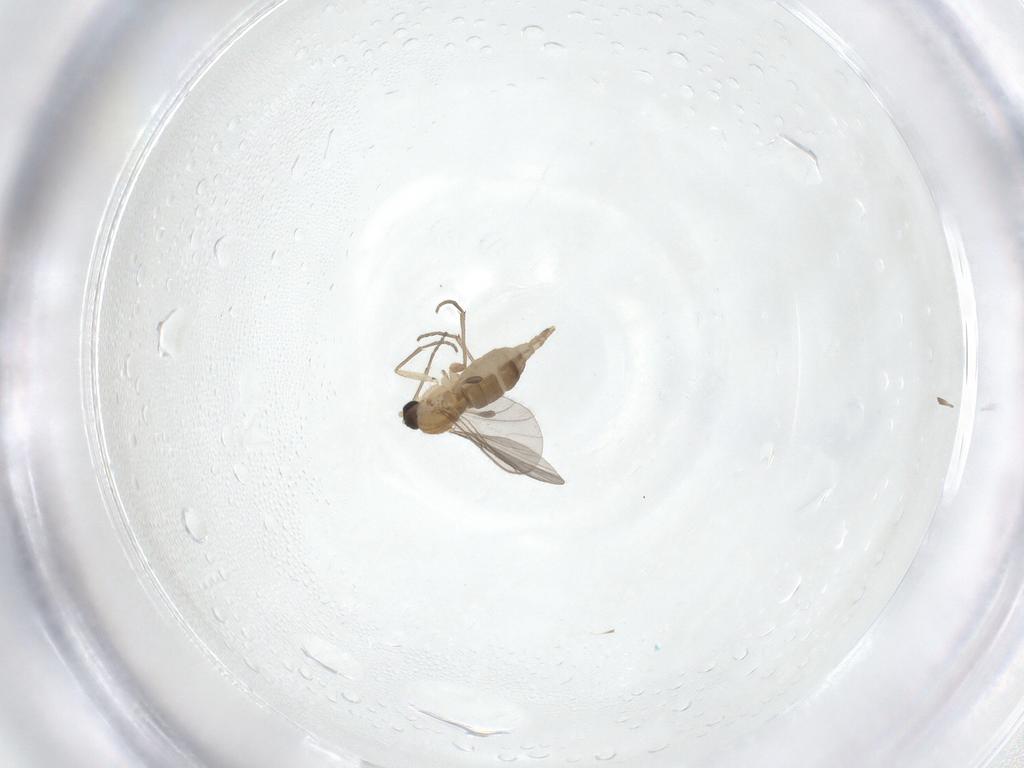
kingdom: Animalia
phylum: Arthropoda
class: Insecta
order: Diptera
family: Sciaridae
